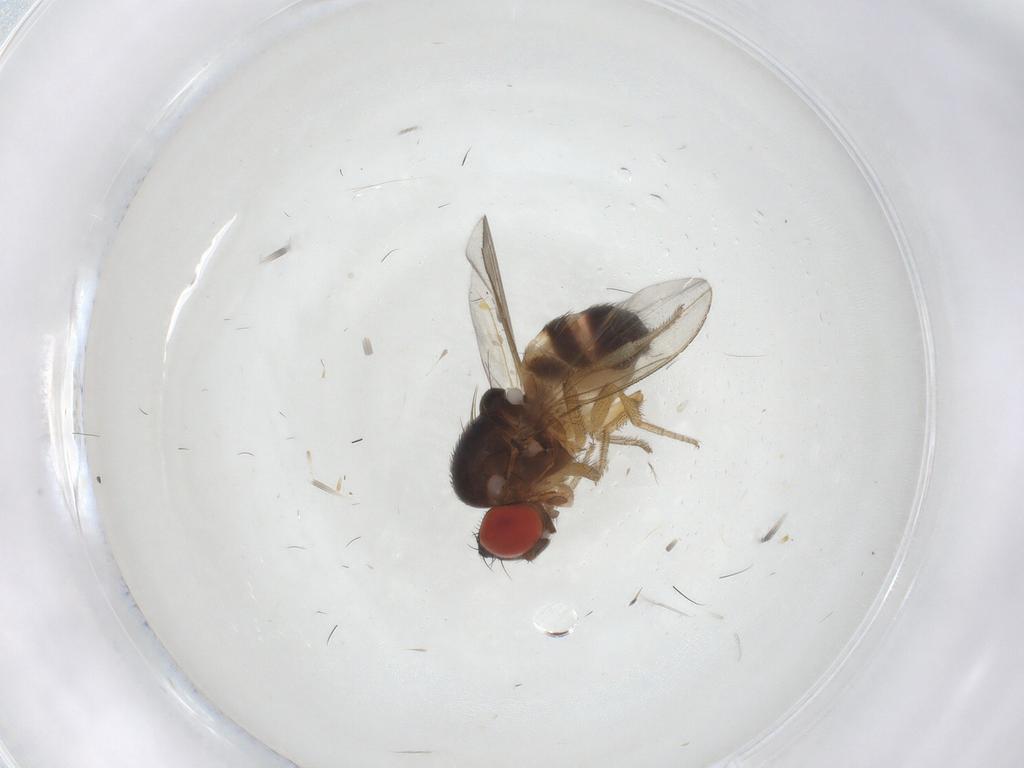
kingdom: Animalia
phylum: Arthropoda
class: Insecta
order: Diptera
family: Drosophilidae
